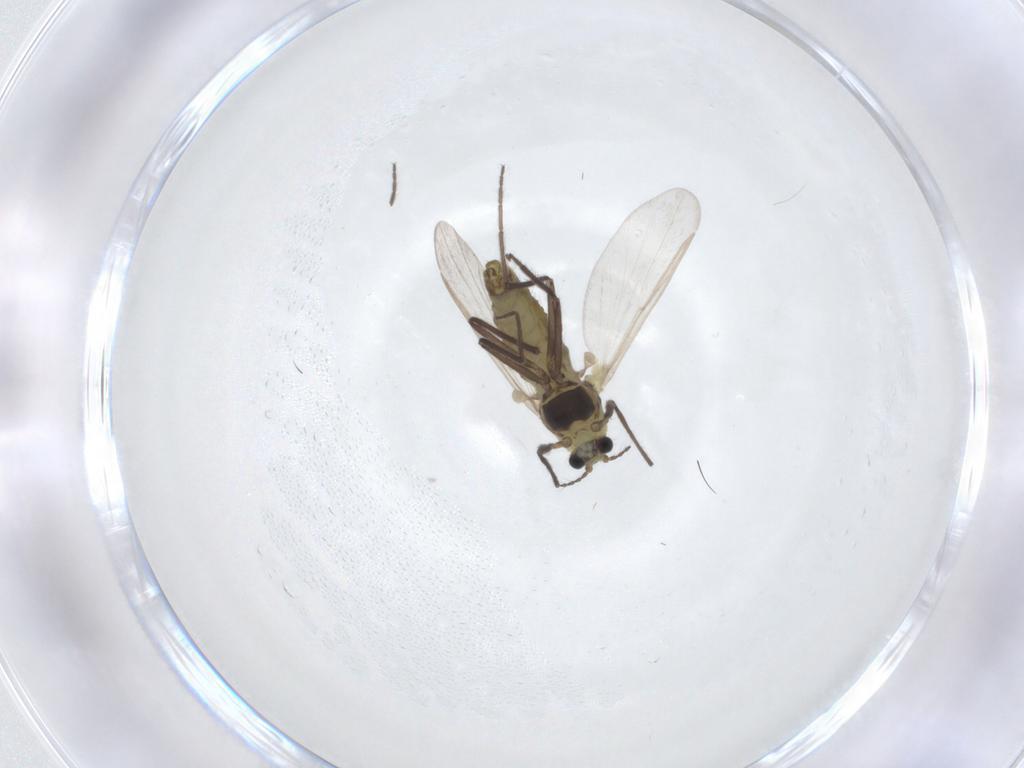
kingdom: Animalia
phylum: Arthropoda
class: Insecta
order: Diptera
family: Chironomidae
